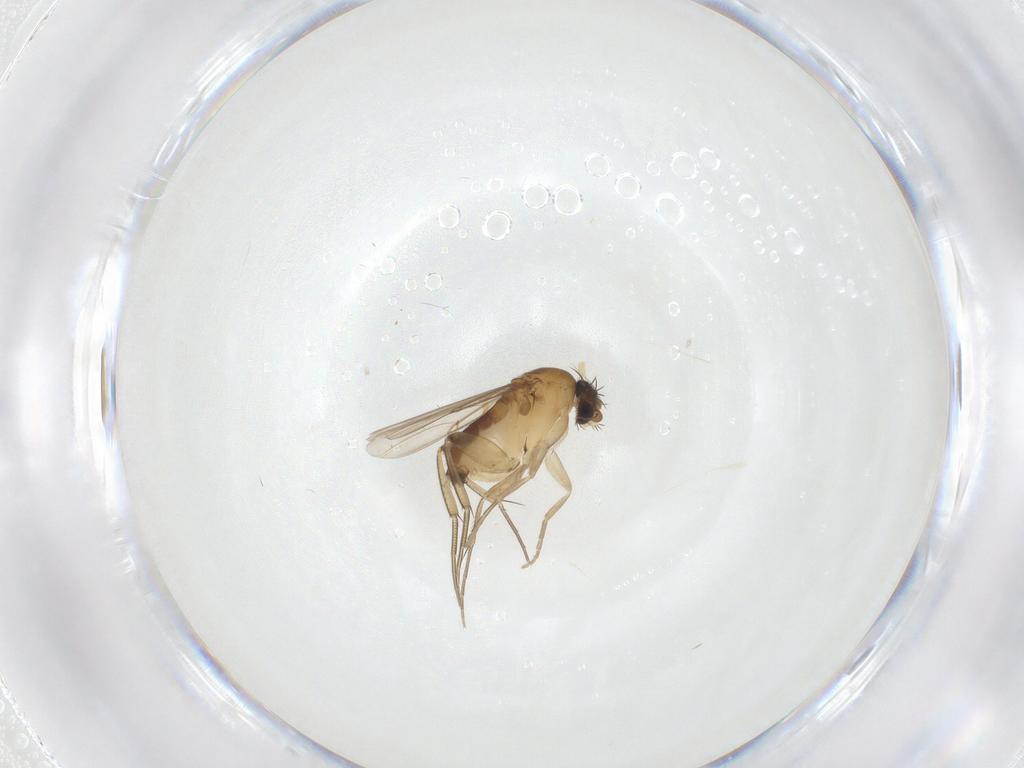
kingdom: Animalia
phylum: Arthropoda
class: Insecta
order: Diptera
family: Phoridae
